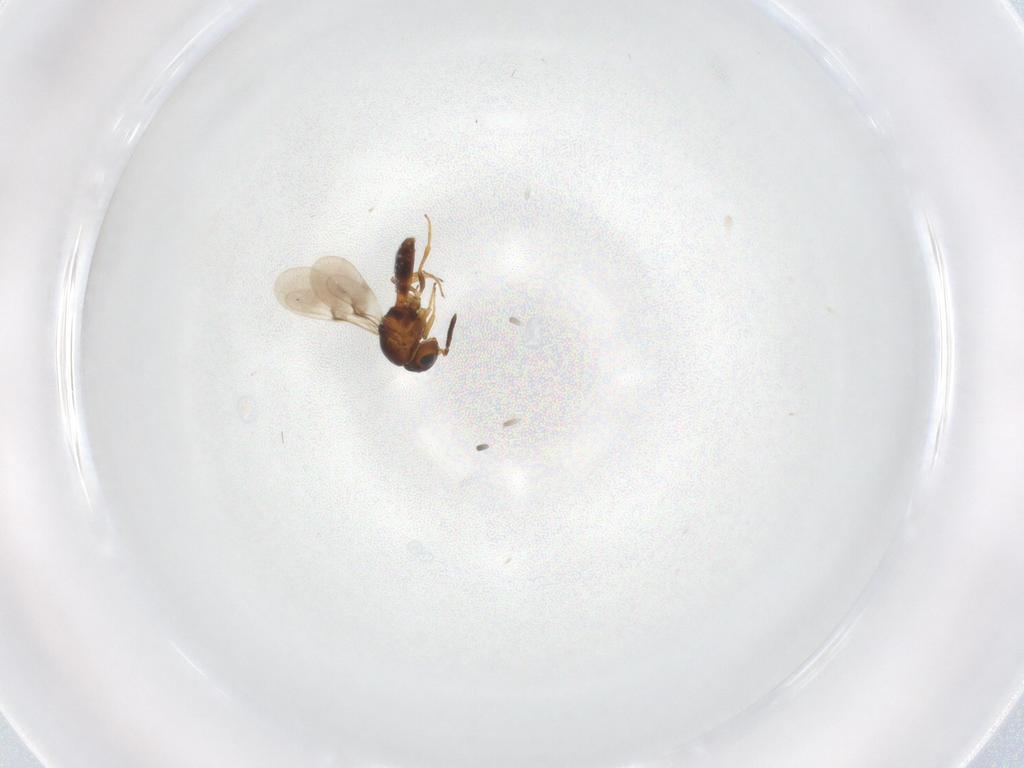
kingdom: Animalia
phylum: Arthropoda
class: Insecta
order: Hymenoptera
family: Scelionidae
